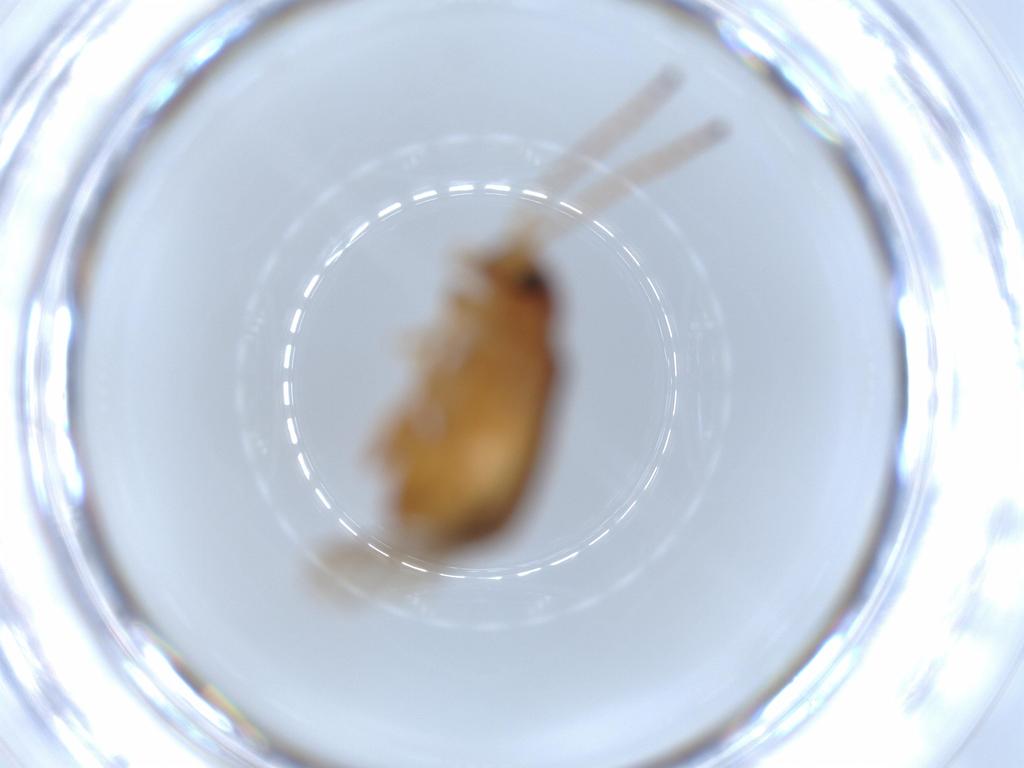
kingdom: Animalia
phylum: Arthropoda
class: Insecta
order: Coleoptera
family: Chrysomelidae
